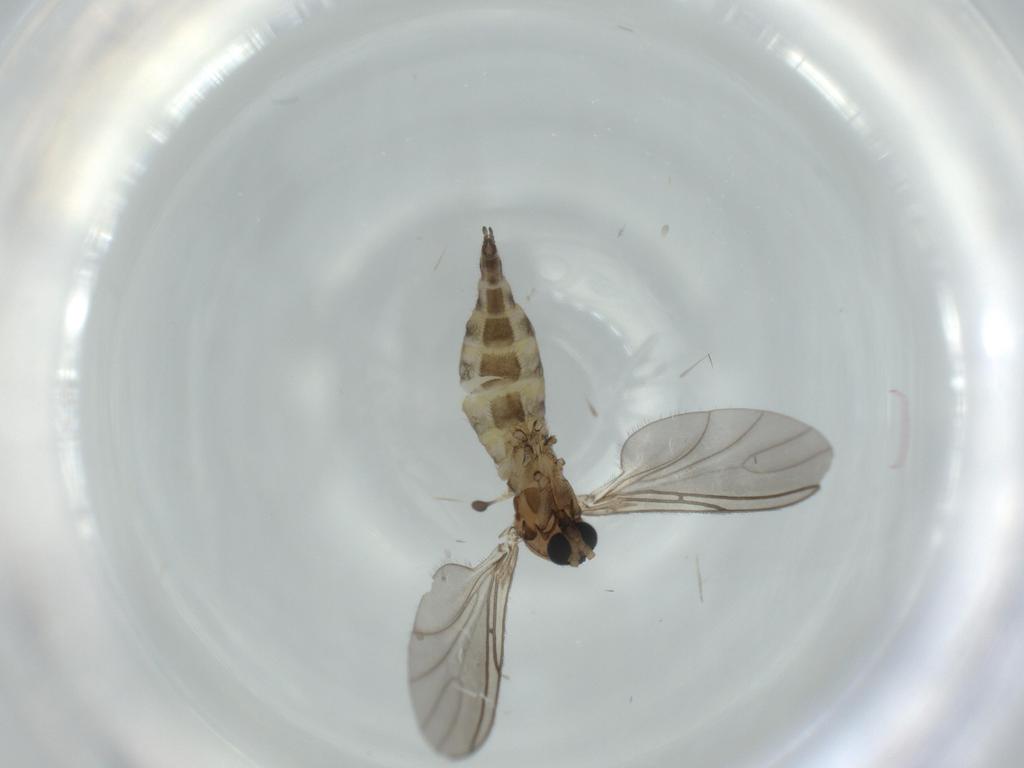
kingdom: Animalia
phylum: Arthropoda
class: Insecta
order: Diptera
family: Sciaridae
